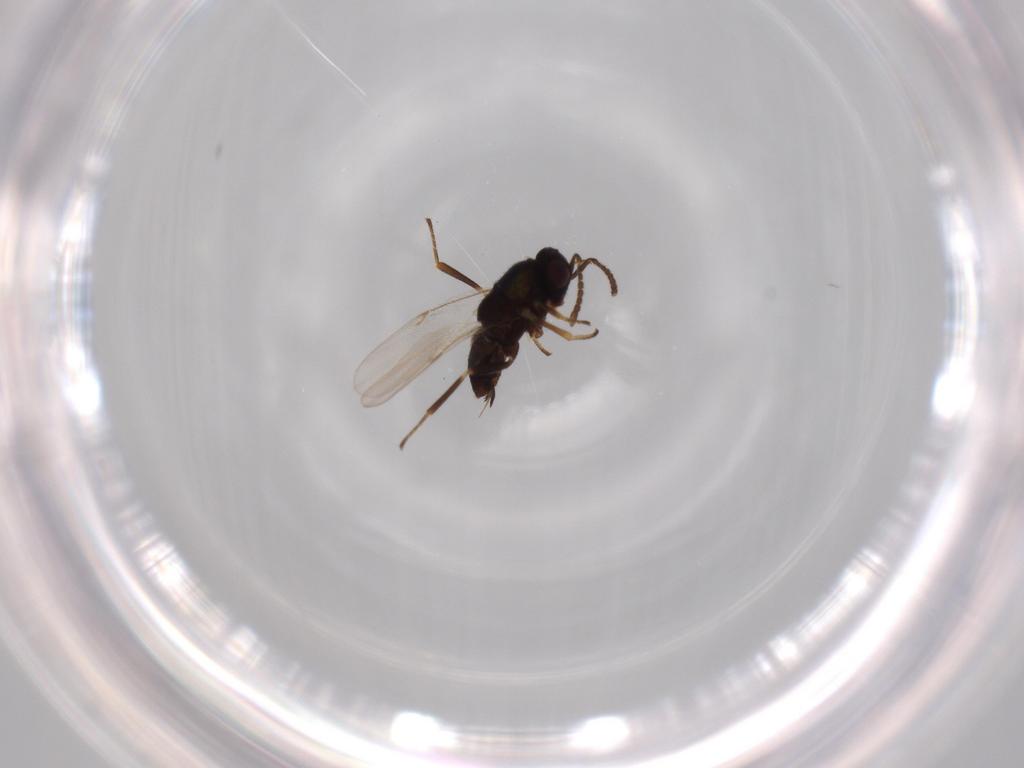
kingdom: Animalia
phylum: Arthropoda
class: Insecta
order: Hymenoptera
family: Encyrtidae
